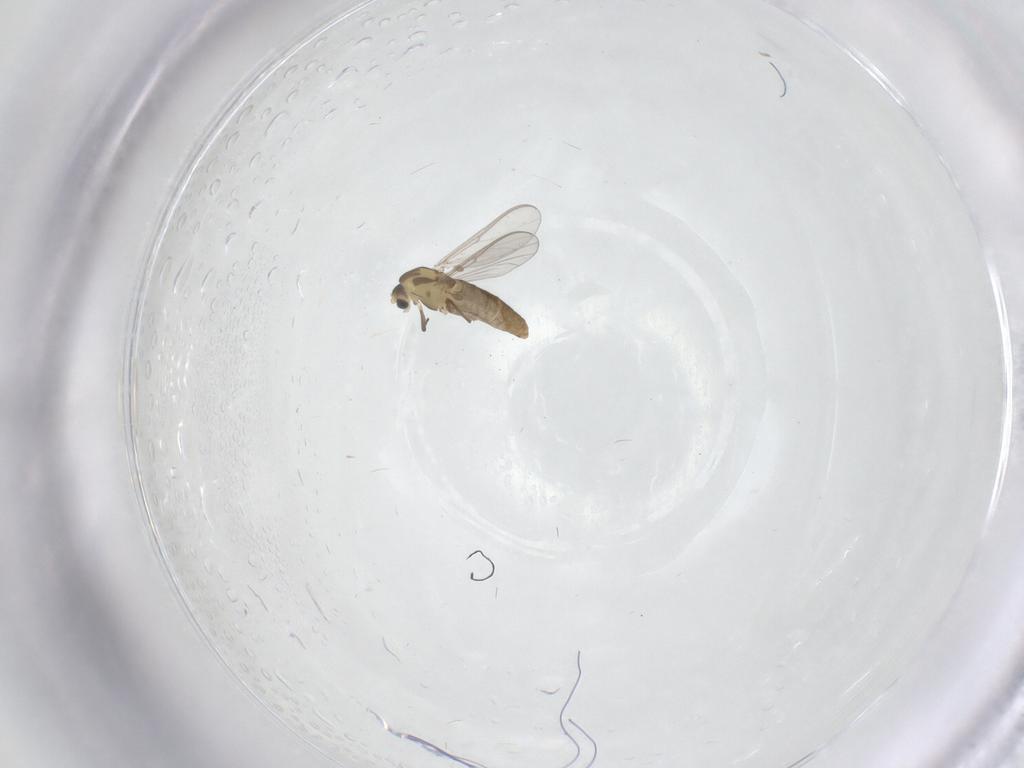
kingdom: Animalia
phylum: Arthropoda
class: Insecta
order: Diptera
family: Chironomidae
